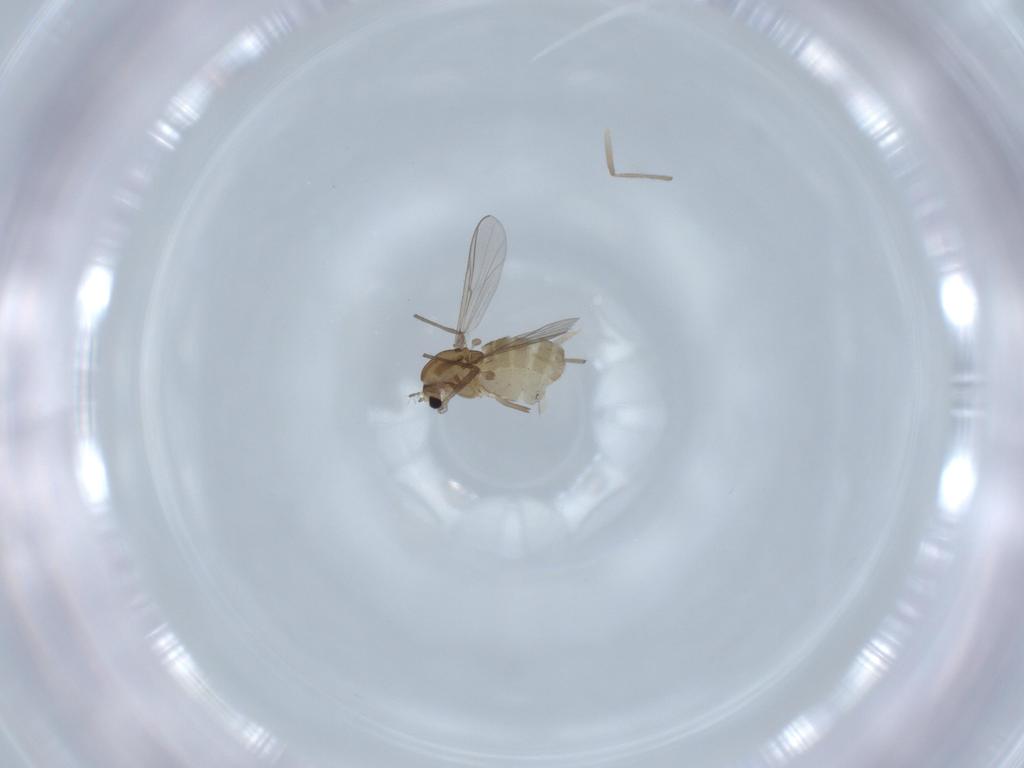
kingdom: Animalia
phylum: Arthropoda
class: Insecta
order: Diptera
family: Chironomidae
